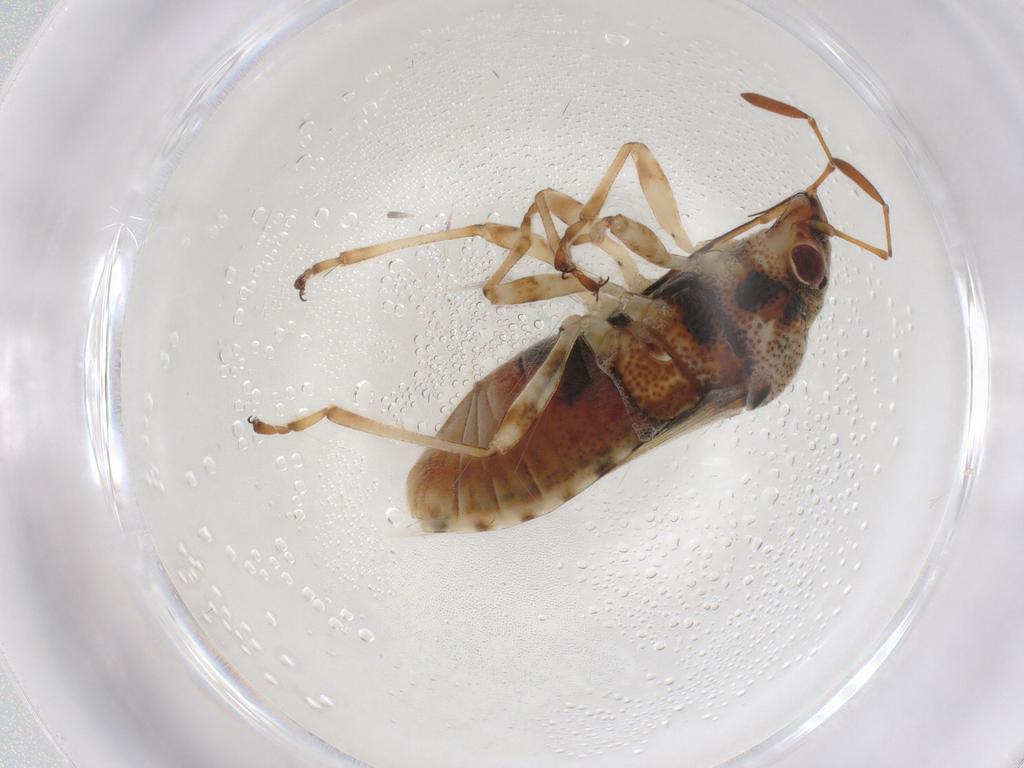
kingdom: Animalia
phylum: Arthropoda
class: Insecta
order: Hemiptera
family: Lygaeidae
